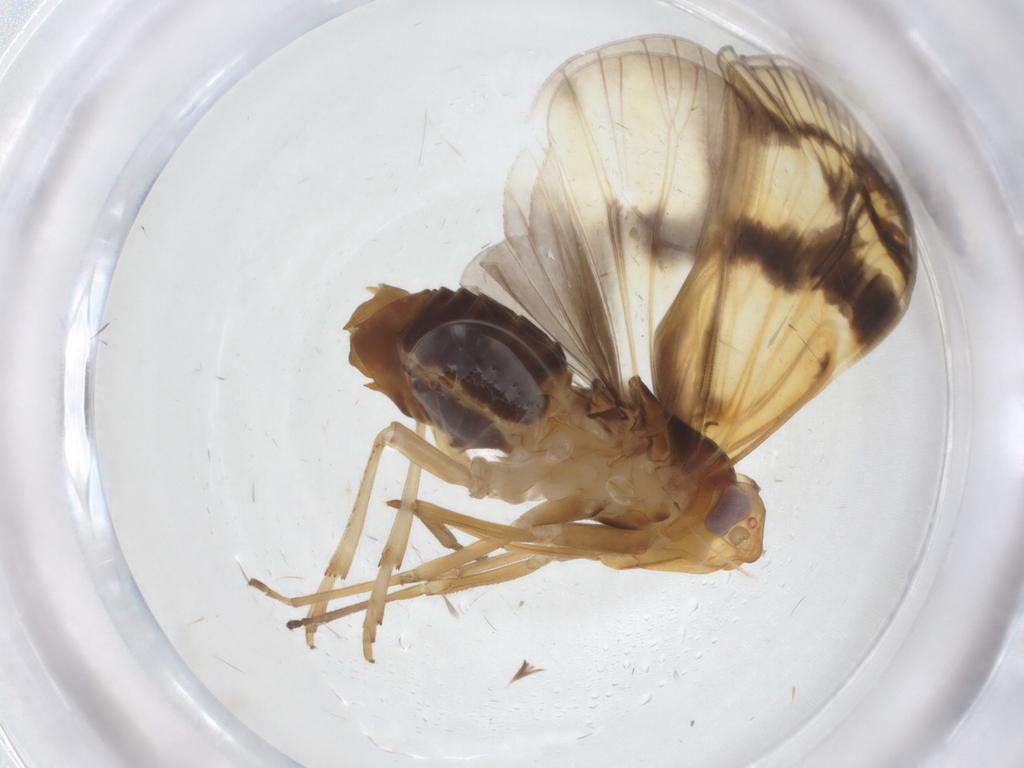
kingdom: Animalia
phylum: Arthropoda
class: Insecta
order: Hemiptera
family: Cixiidae
